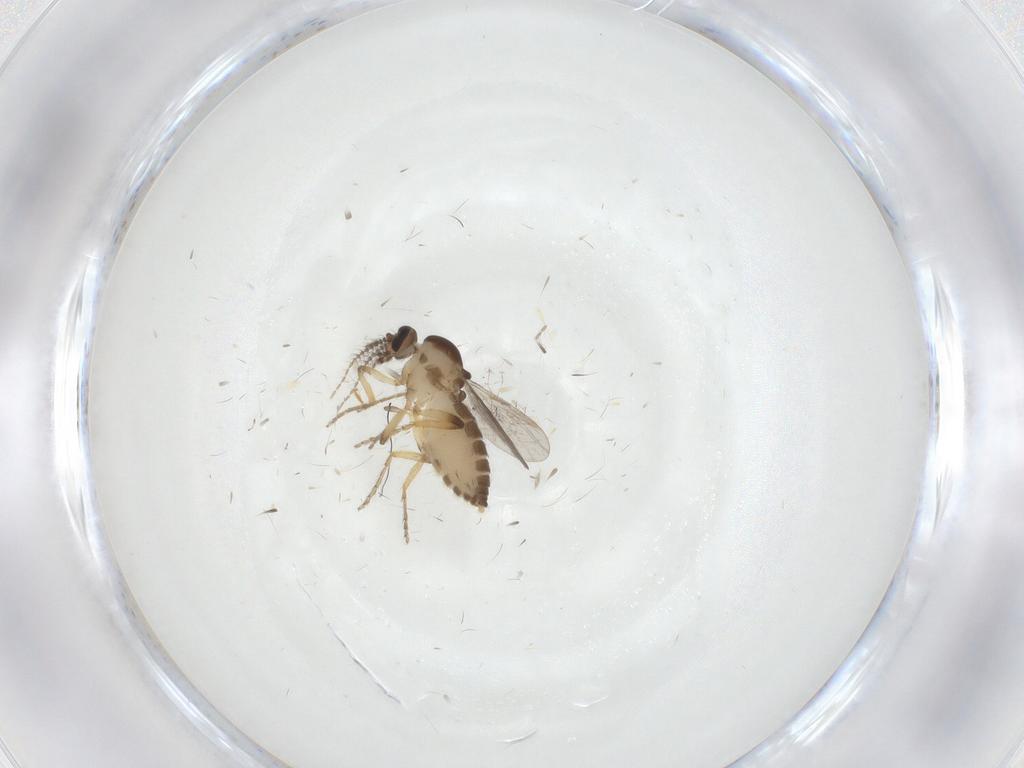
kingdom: Animalia
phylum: Arthropoda
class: Insecta
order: Diptera
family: Ceratopogonidae
